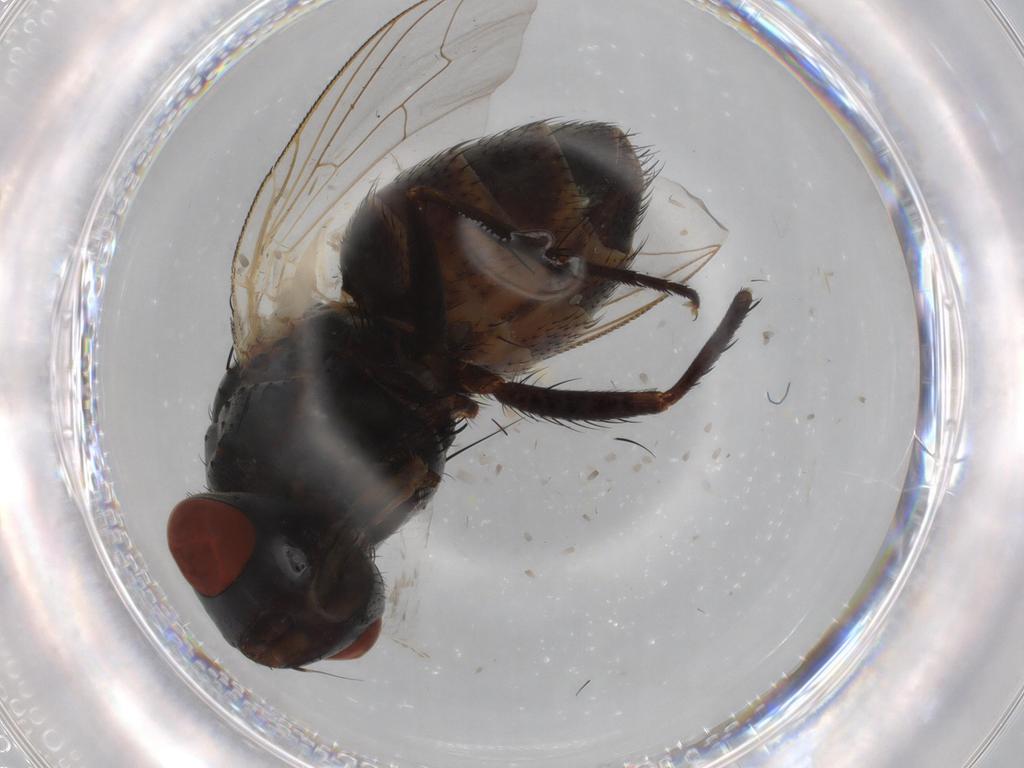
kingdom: Animalia
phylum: Arthropoda
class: Insecta
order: Diptera
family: Sarcophagidae
